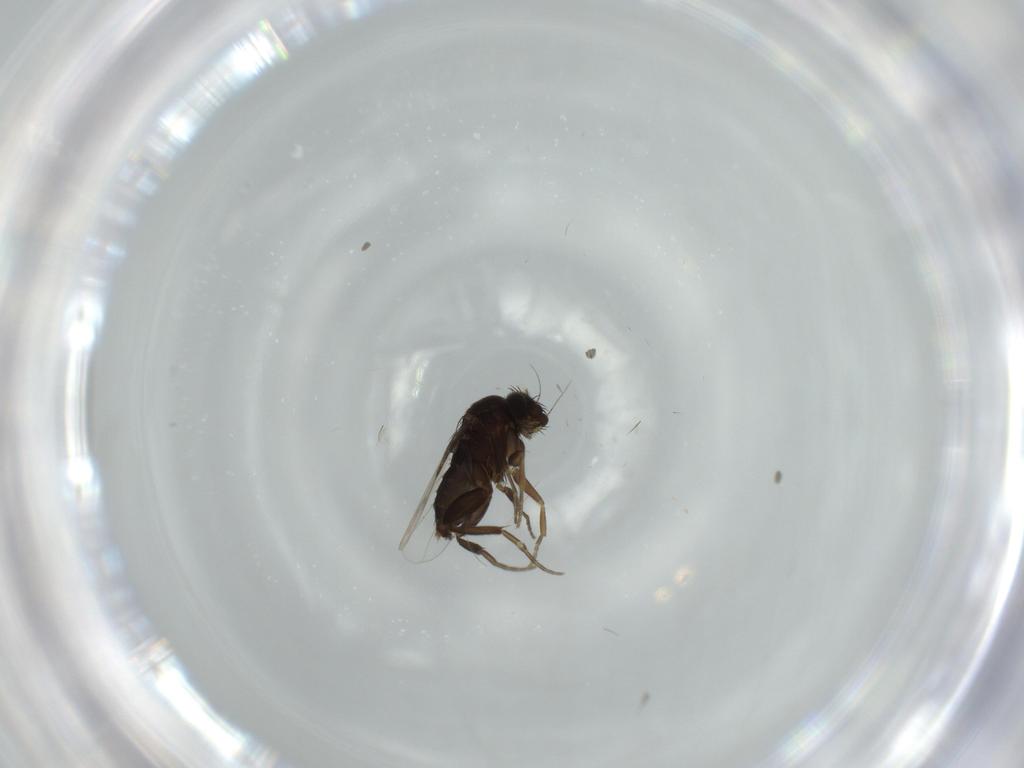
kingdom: Animalia
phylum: Arthropoda
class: Insecta
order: Diptera
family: Phoridae
